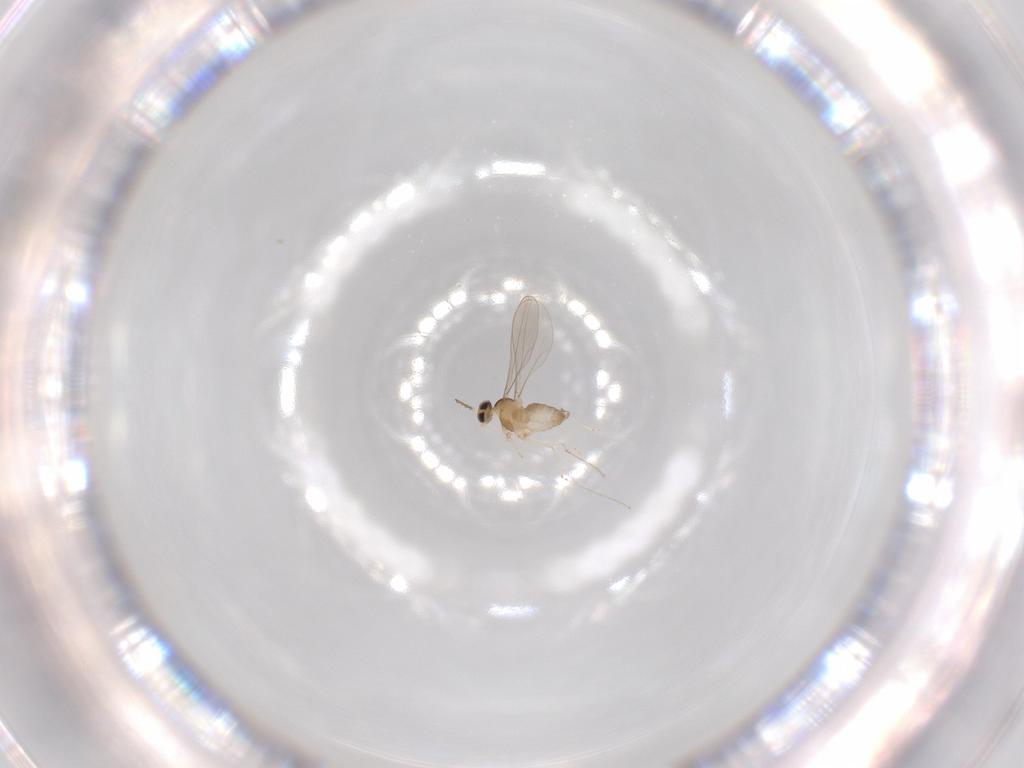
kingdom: Animalia
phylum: Arthropoda
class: Insecta
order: Diptera
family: Cecidomyiidae
